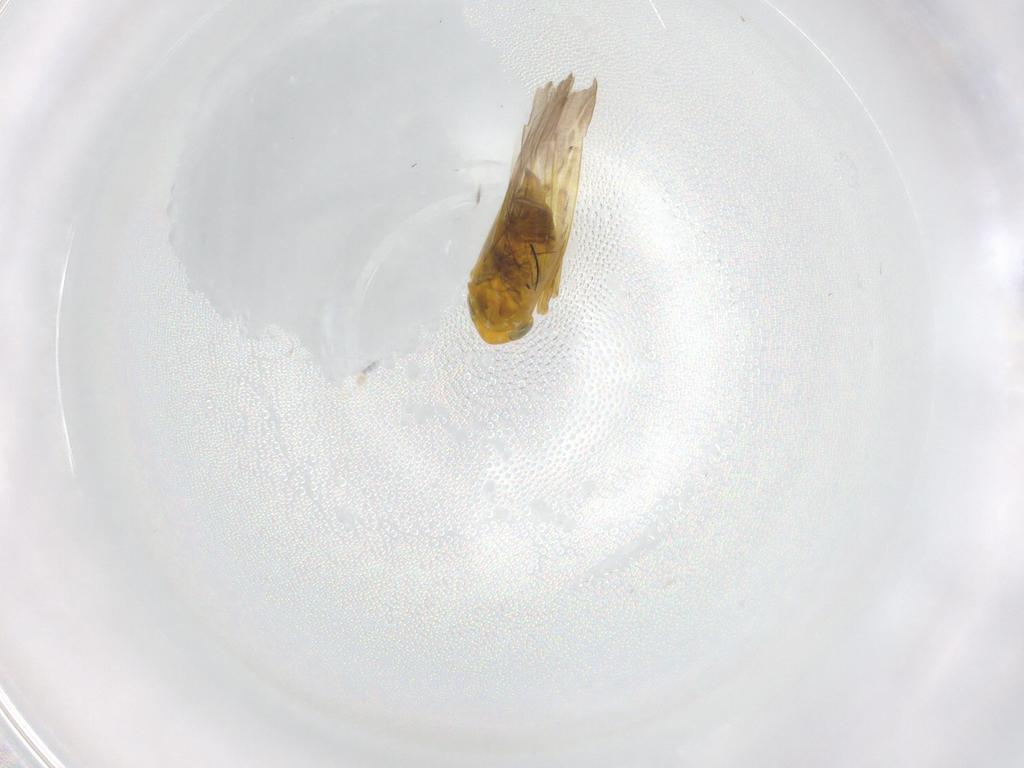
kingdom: Animalia
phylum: Arthropoda
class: Insecta
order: Hemiptera
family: Cicadellidae
